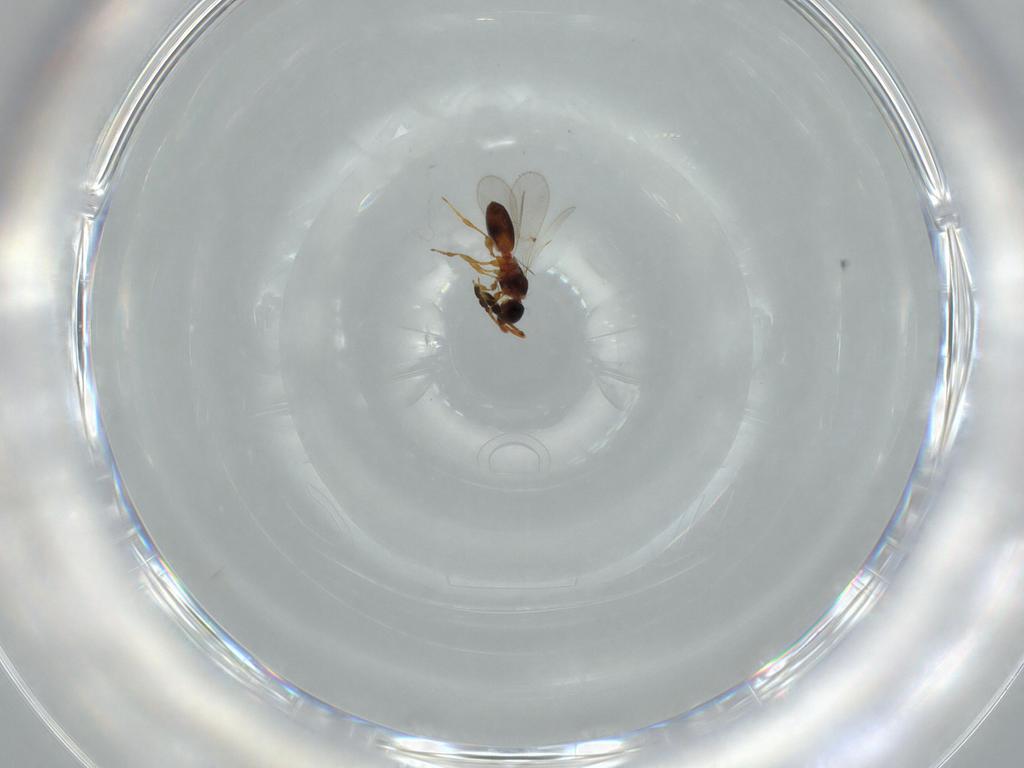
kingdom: Animalia
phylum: Arthropoda
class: Insecta
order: Hymenoptera
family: Diapriidae
